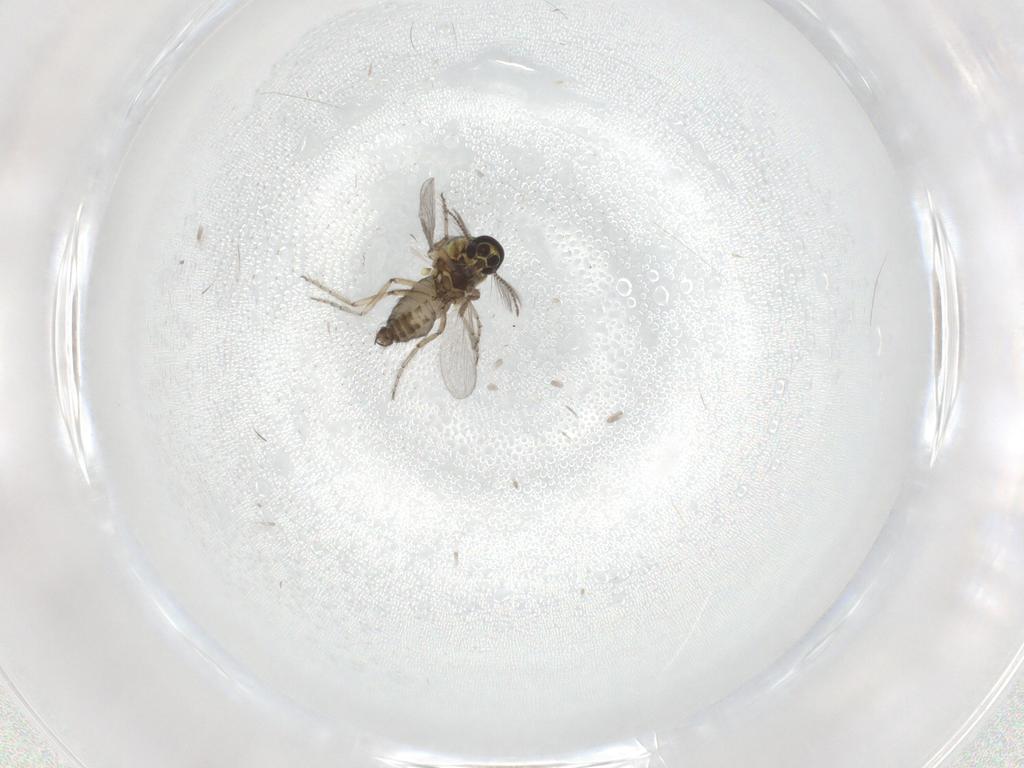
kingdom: Animalia
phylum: Arthropoda
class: Insecta
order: Diptera
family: Ceratopogonidae
